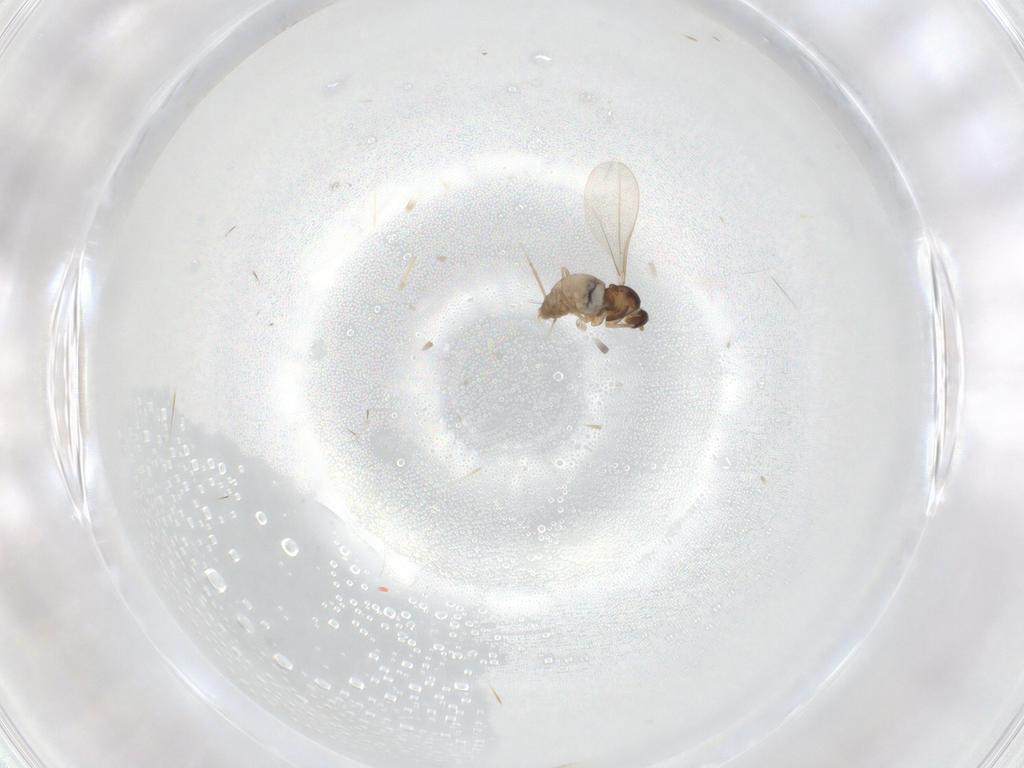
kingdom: Animalia
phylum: Arthropoda
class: Insecta
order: Diptera
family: Cecidomyiidae
